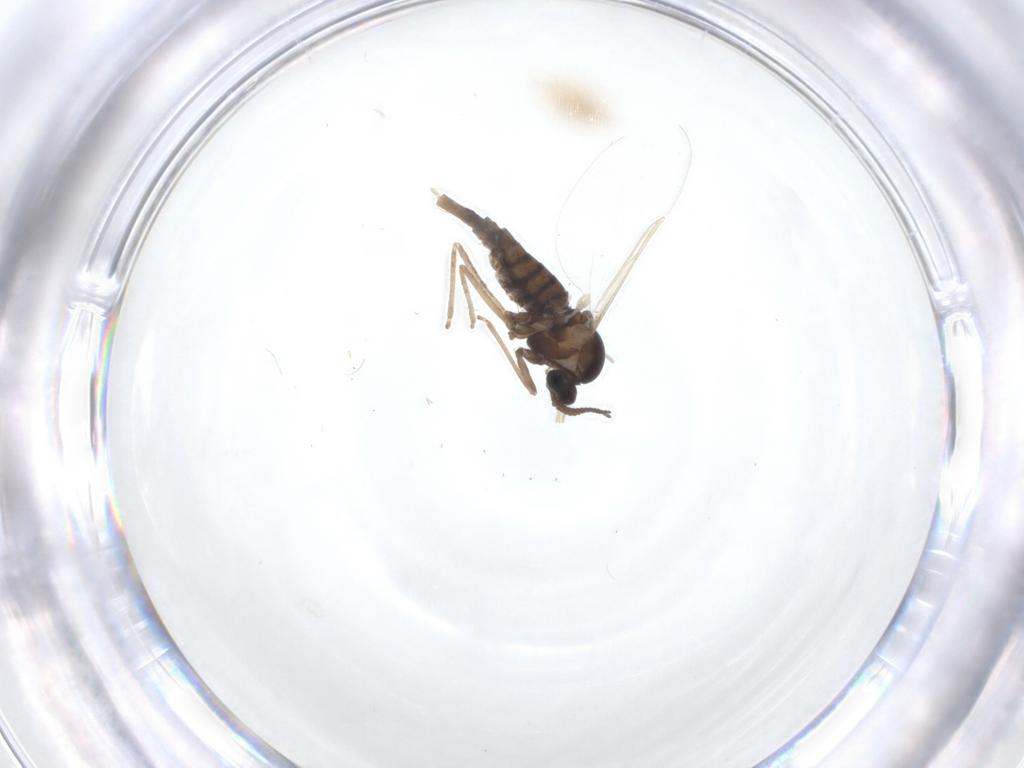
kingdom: Animalia
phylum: Arthropoda
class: Insecta
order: Diptera
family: Cecidomyiidae
